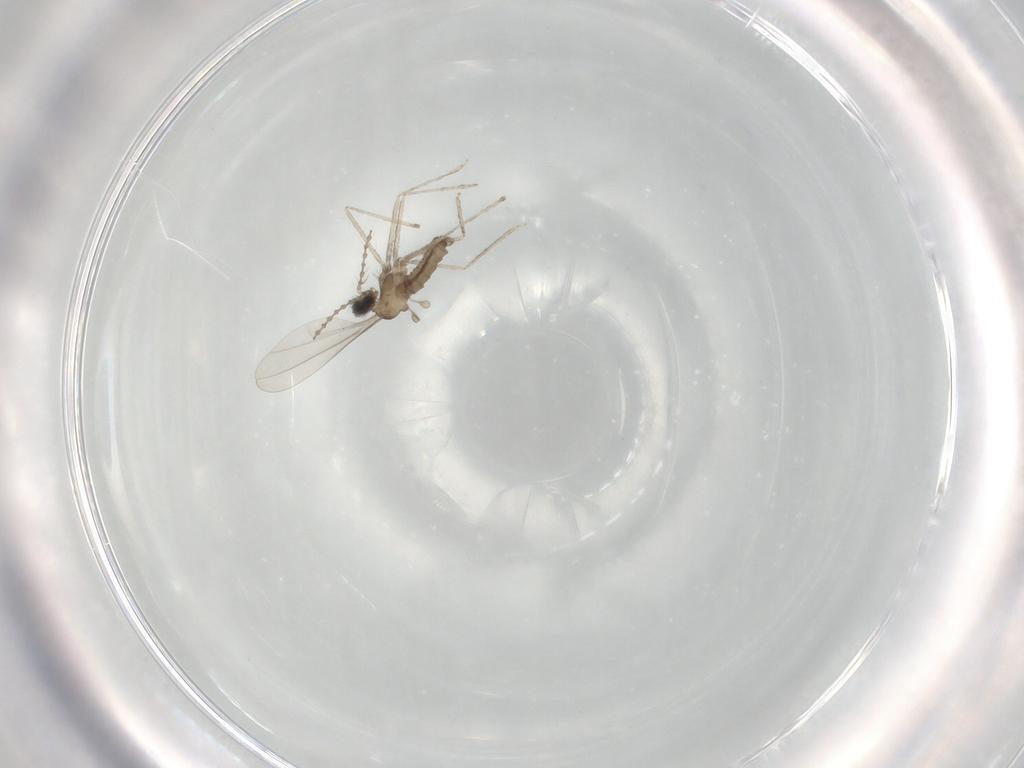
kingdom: Animalia
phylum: Arthropoda
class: Insecta
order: Diptera
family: Cecidomyiidae
